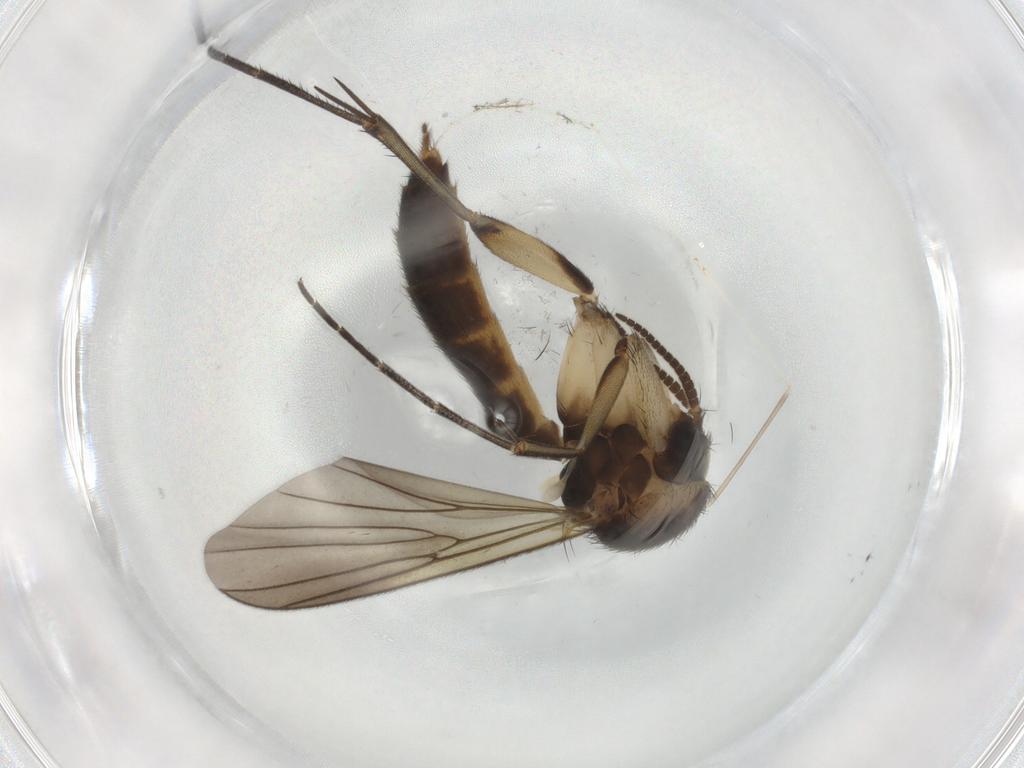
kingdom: Animalia
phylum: Arthropoda
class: Insecta
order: Diptera
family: Mycetophilidae
